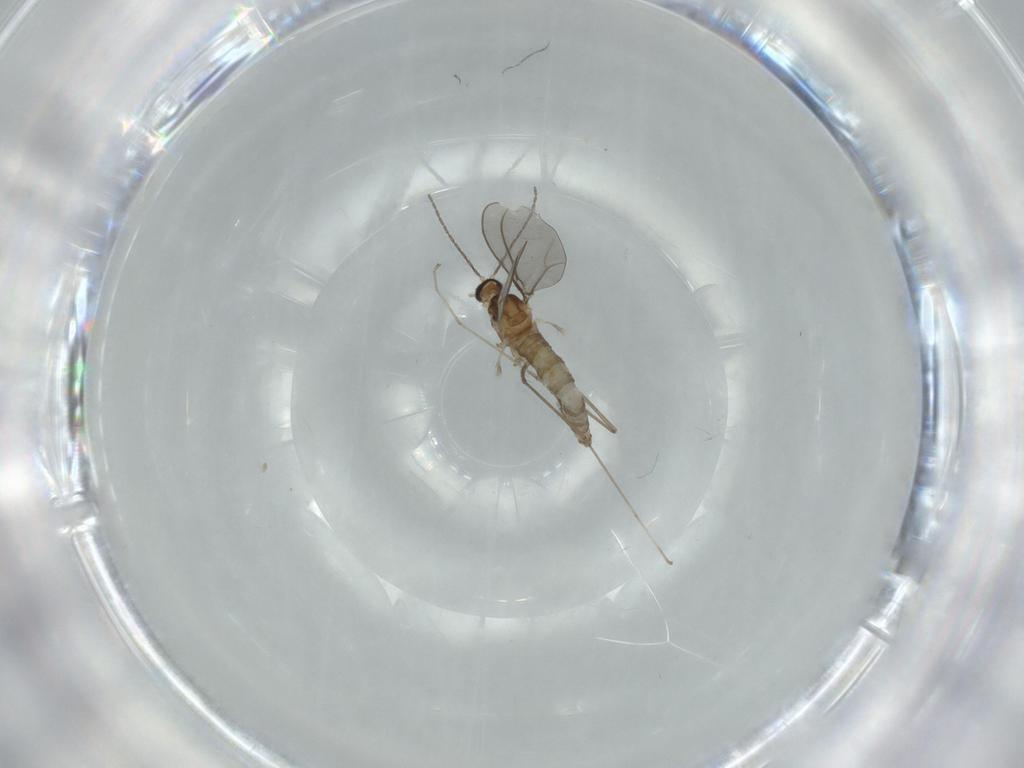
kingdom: Animalia
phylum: Arthropoda
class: Insecta
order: Diptera
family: Cecidomyiidae
